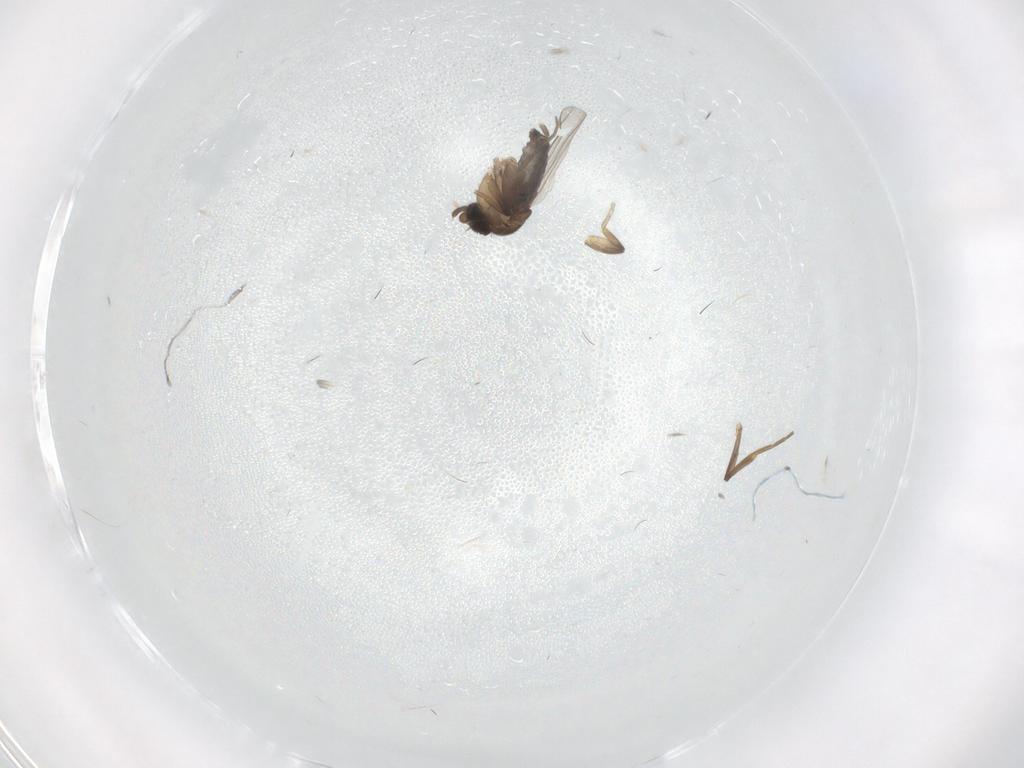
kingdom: Animalia
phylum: Arthropoda
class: Insecta
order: Diptera
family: Phoridae
